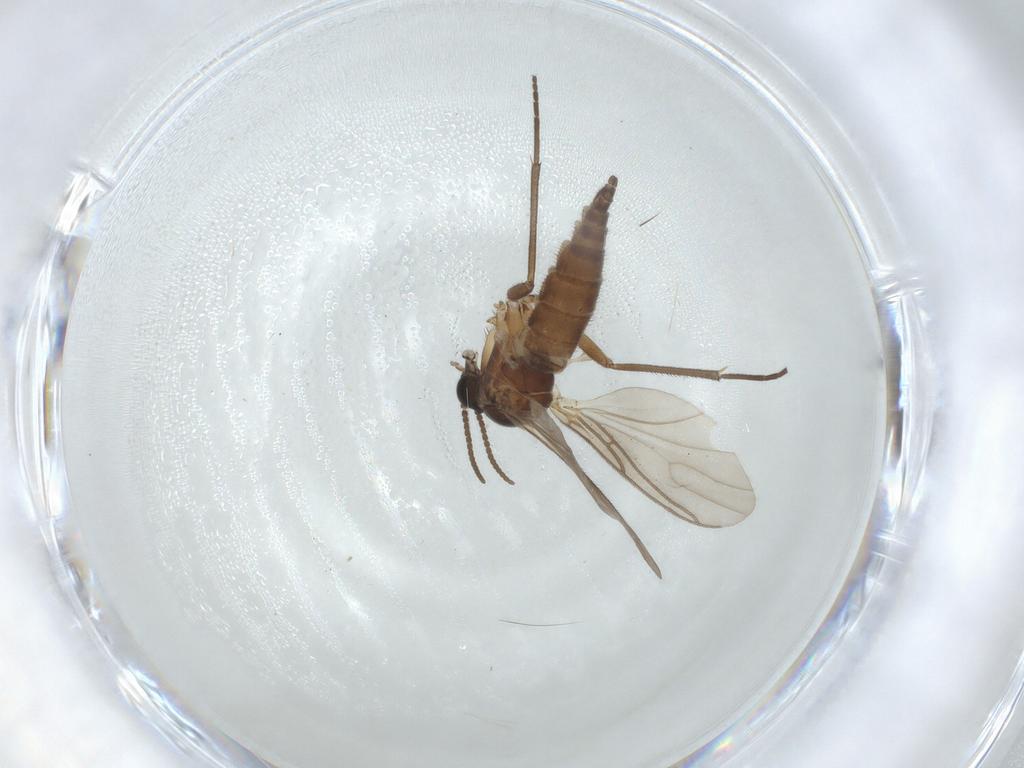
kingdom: Animalia
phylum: Arthropoda
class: Insecta
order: Diptera
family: Sciaridae
